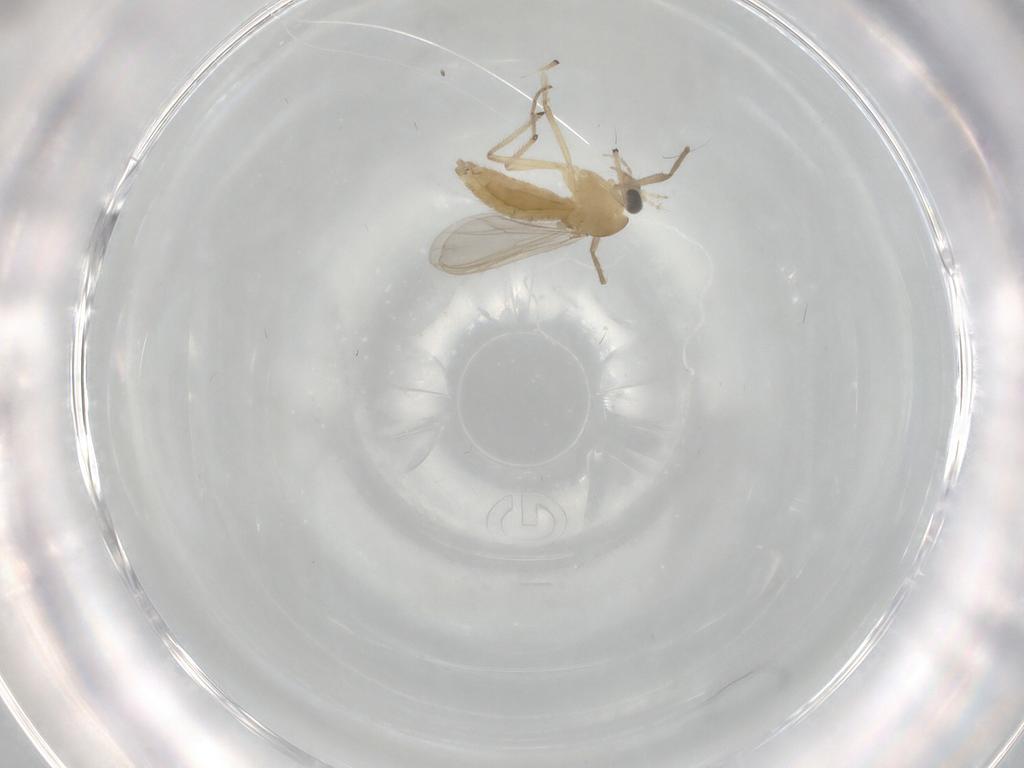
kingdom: Animalia
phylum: Arthropoda
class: Insecta
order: Diptera
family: Chironomidae
